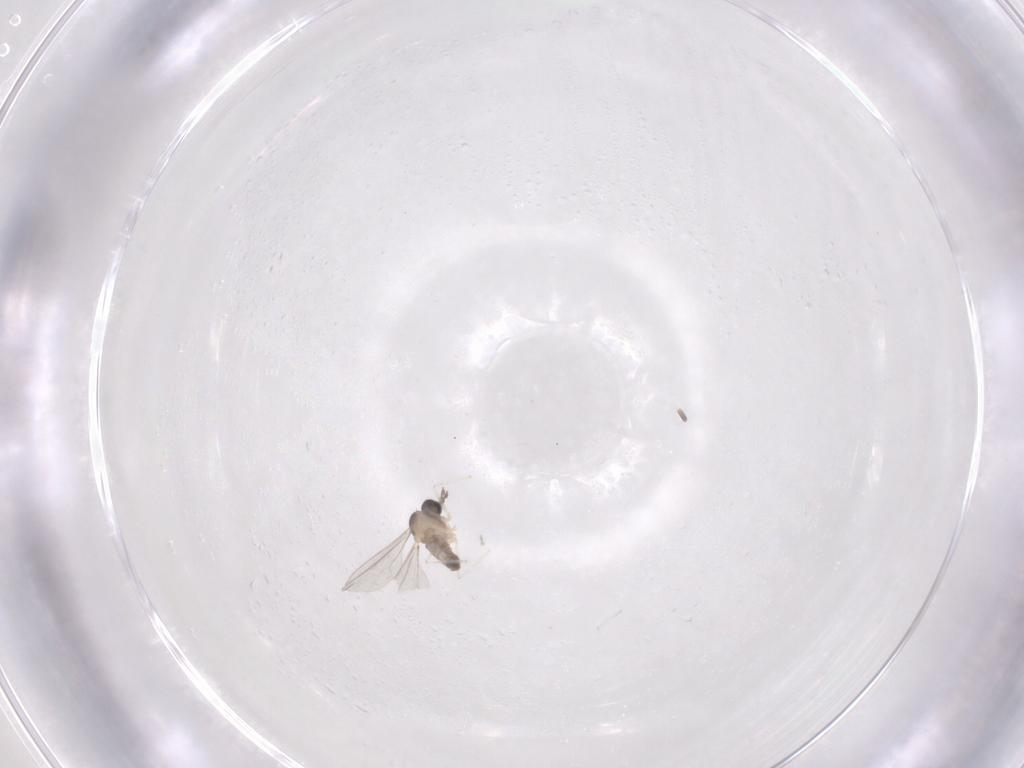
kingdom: Animalia
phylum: Arthropoda
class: Insecta
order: Diptera
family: Cecidomyiidae
